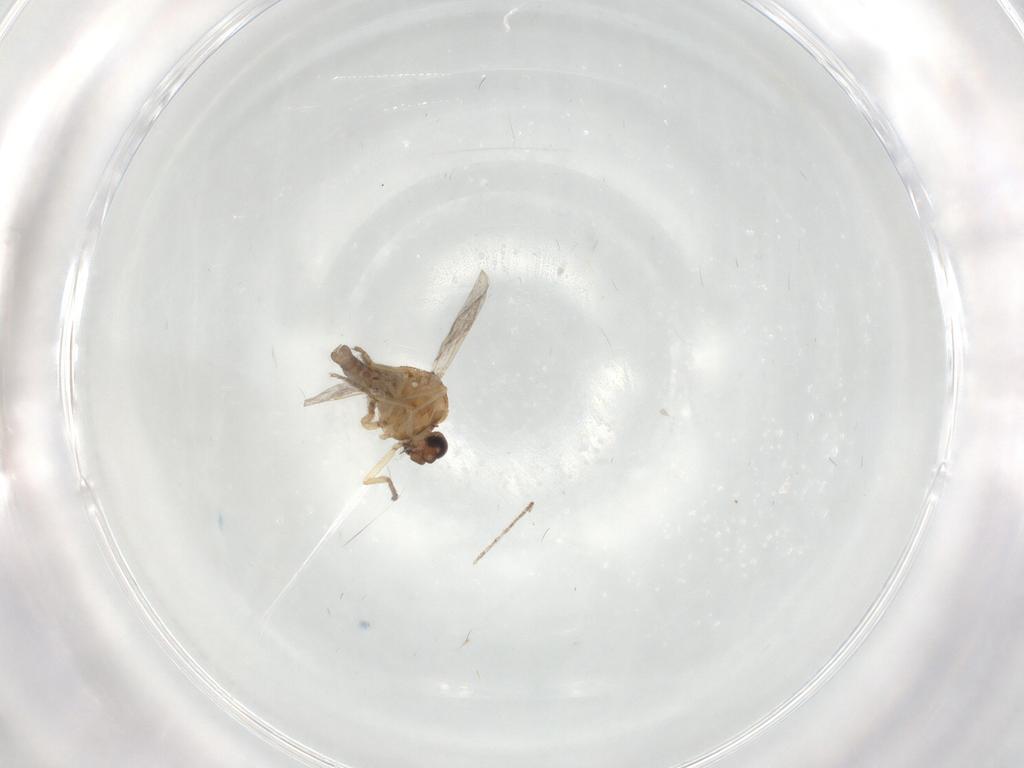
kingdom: Animalia
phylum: Arthropoda
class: Insecta
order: Diptera
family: Ceratopogonidae
